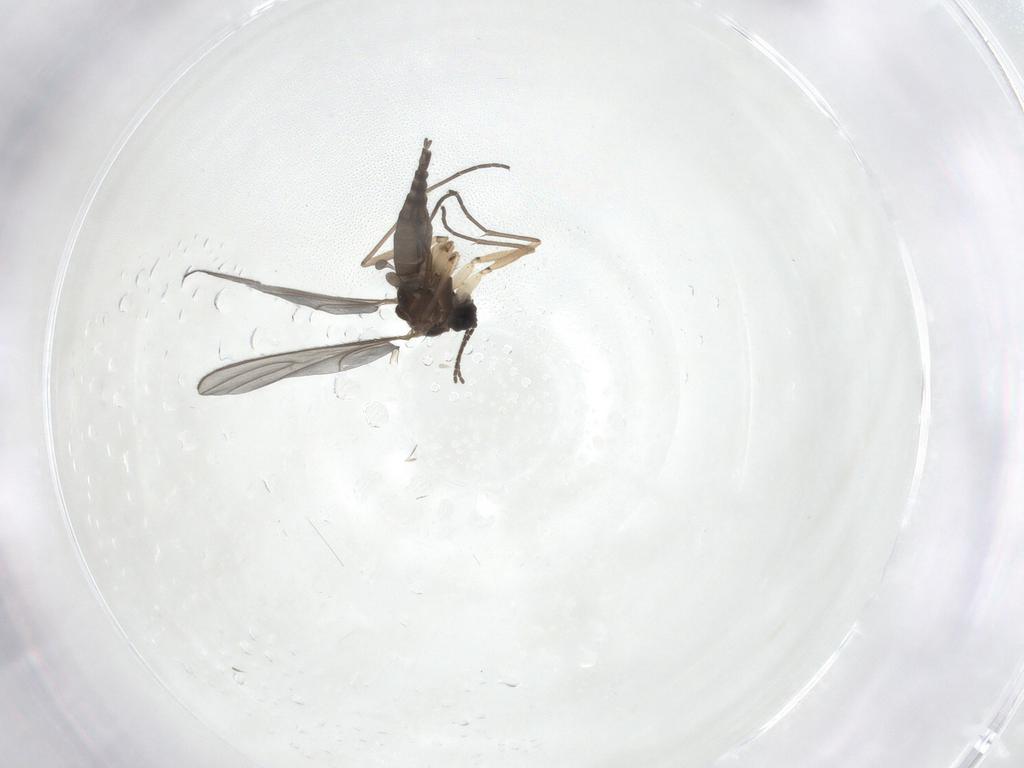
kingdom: Animalia
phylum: Arthropoda
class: Insecta
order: Diptera
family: Sciaridae
